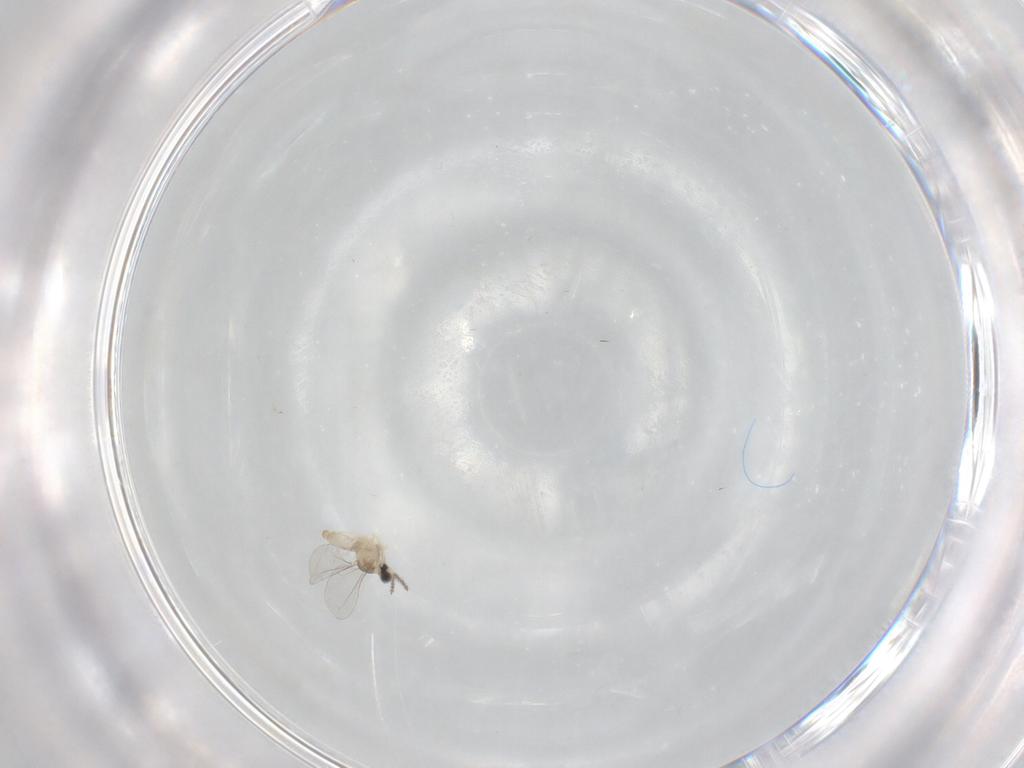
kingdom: Animalia
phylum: Arthropoda
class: Insecta
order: Diptera
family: Cecidomyiidae
